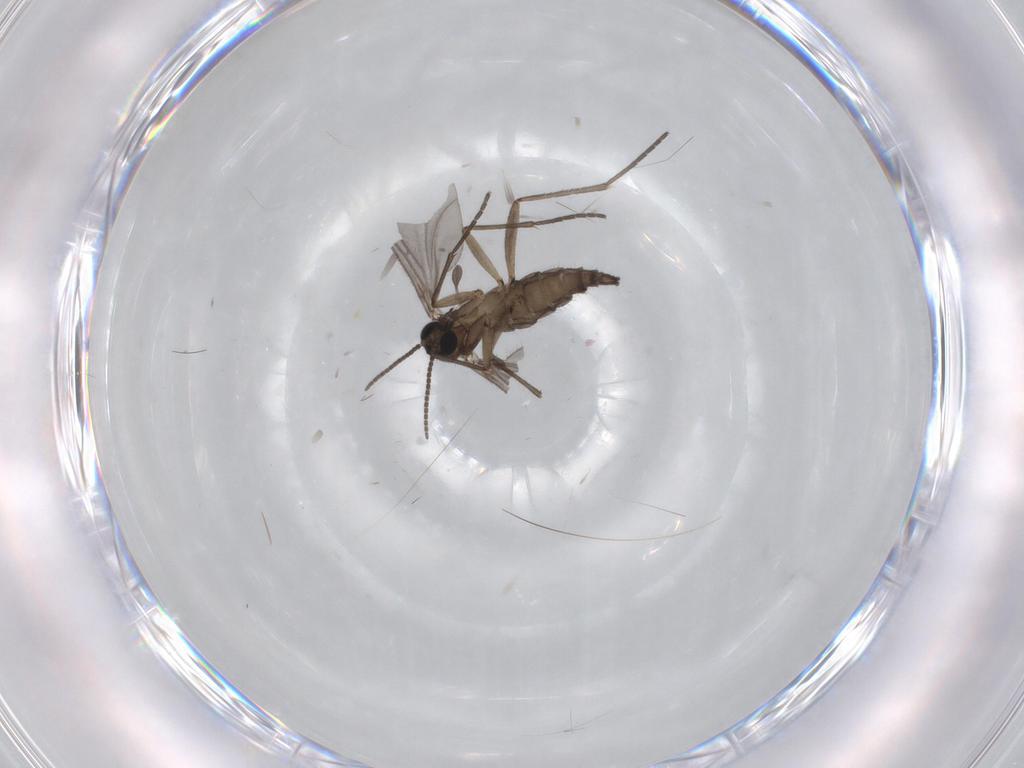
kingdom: Animalia
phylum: Arthropoda
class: Insecta
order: Diptera
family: Sciaridae
